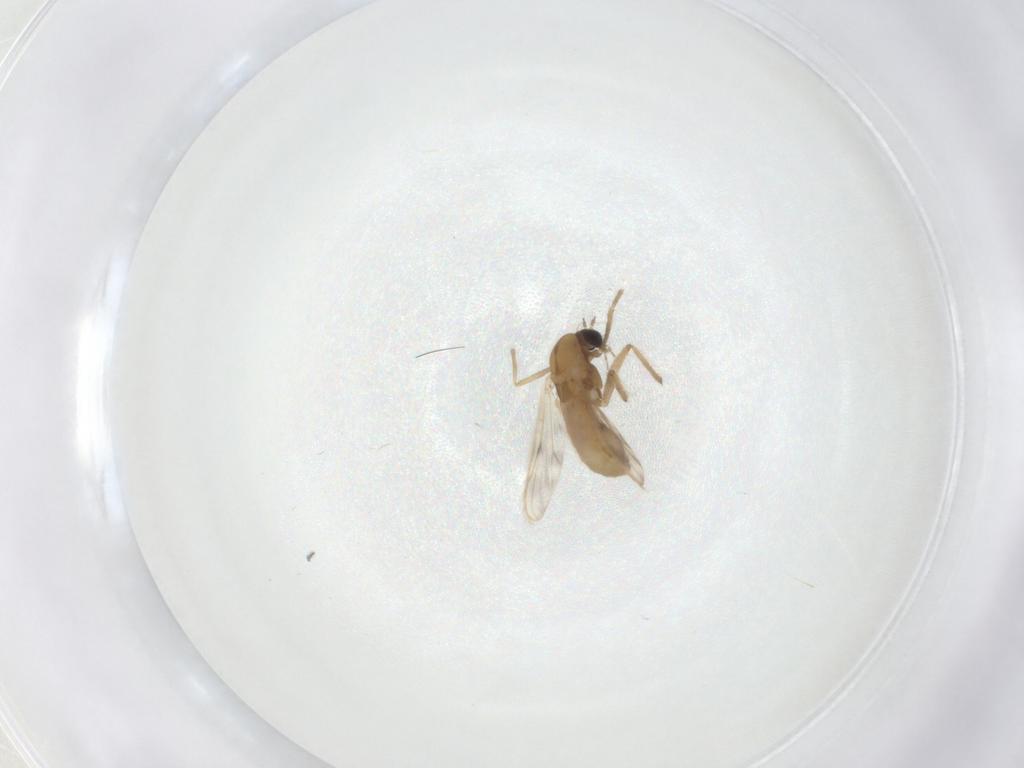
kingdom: Animalia
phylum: Arthropoda
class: Insecta
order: Diptera
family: Chironomidae
